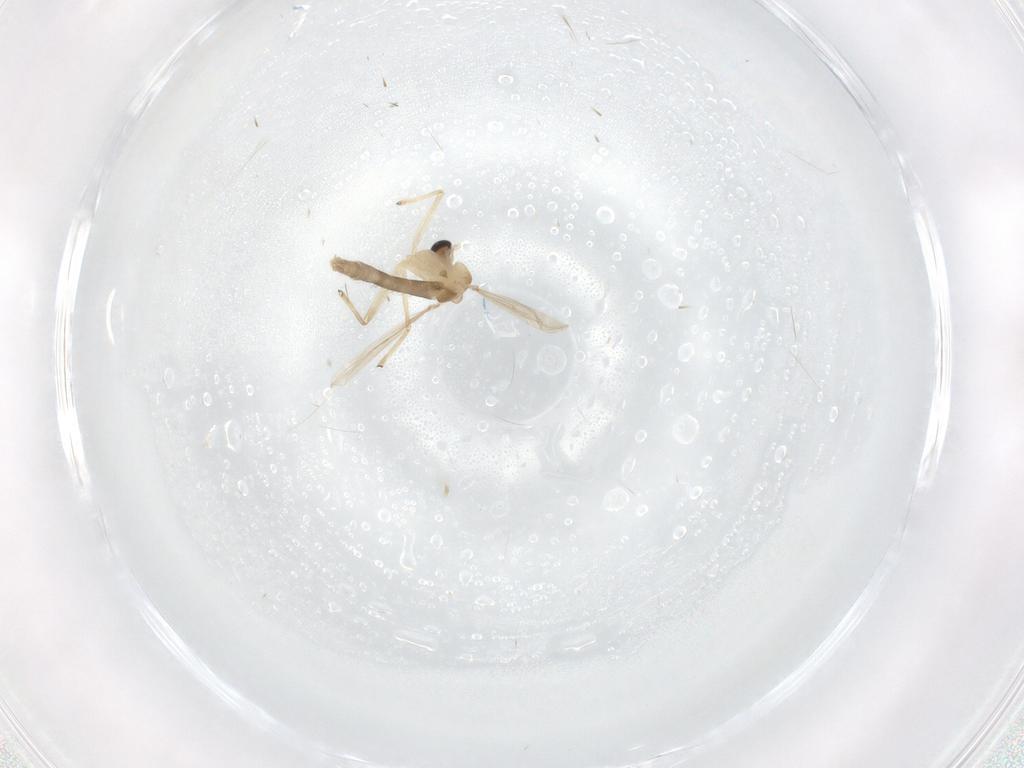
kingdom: Animalia
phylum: Arthropoda
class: Insecta
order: Diptera
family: Chironomidae
